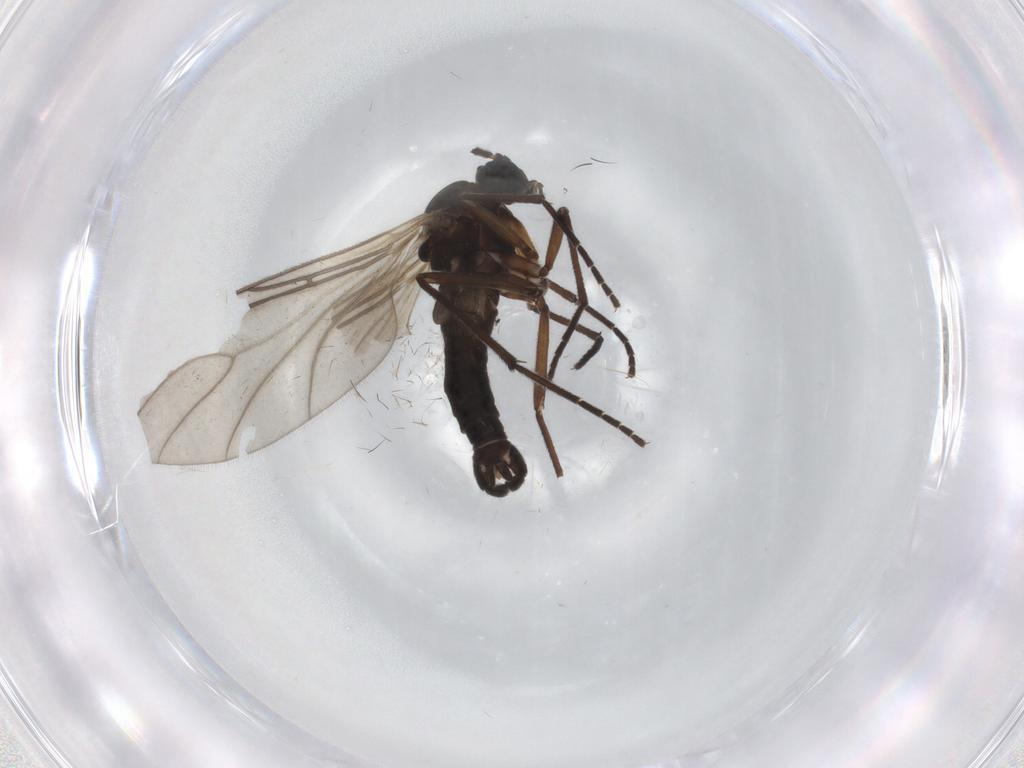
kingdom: Animalia
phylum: Arthropoda
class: Insecta
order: Diptera
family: Sciaridae
